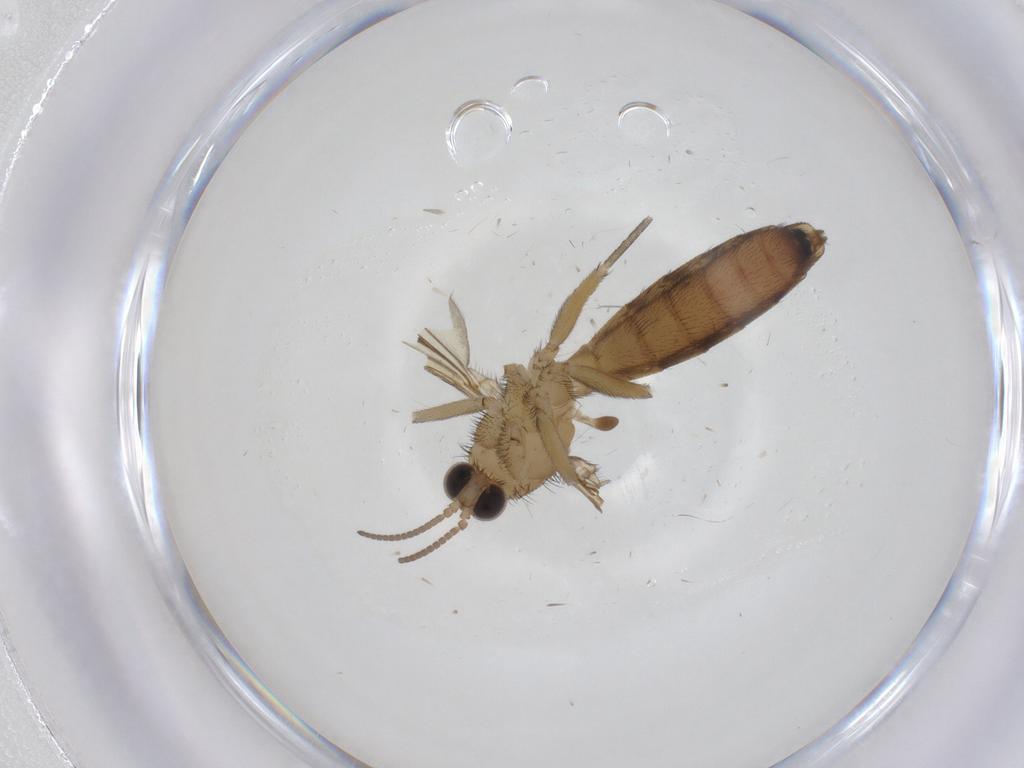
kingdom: Animalia
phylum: Arthropoda
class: Insecta
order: Diptera
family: Keroplatidae
